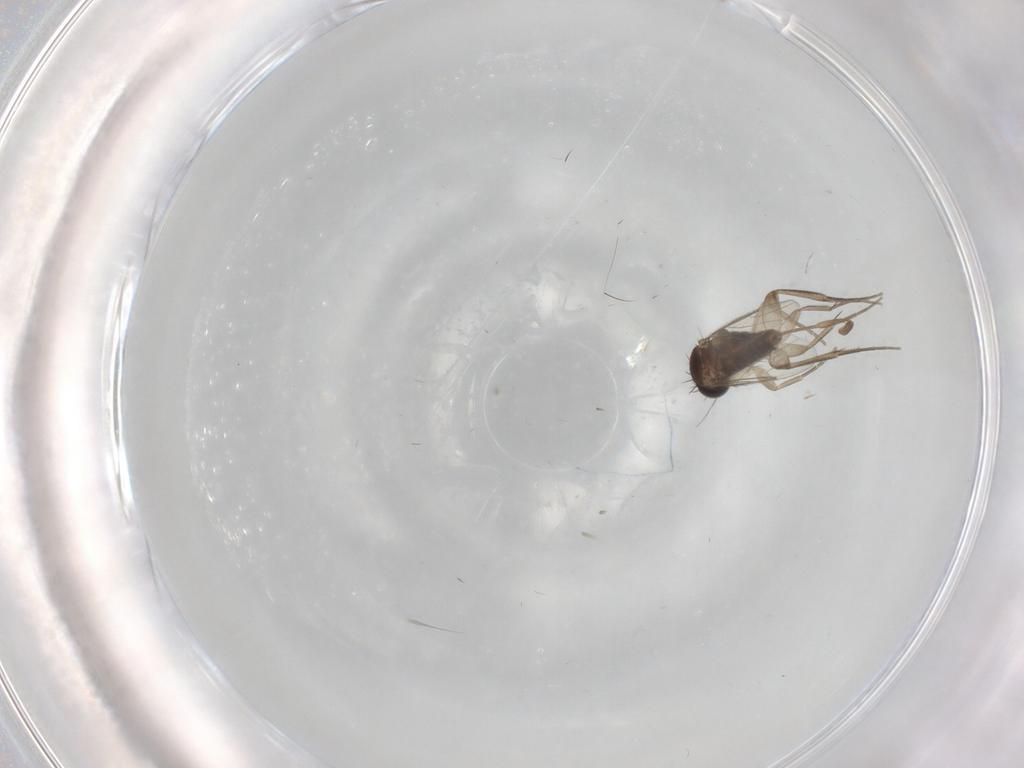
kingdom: Animalia
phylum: Arthropoda
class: Insecta
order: Diptera
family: Phoridae
